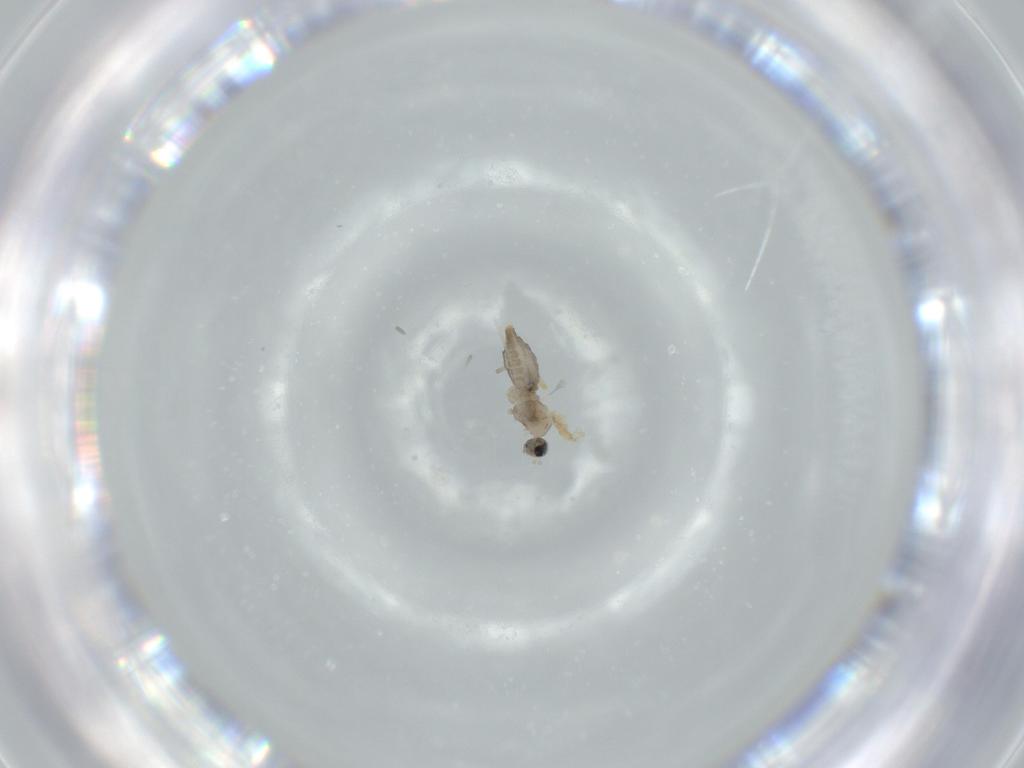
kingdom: Animalia
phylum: Arthropoda
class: Insecta
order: Diptera
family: Cecidomyiidae
